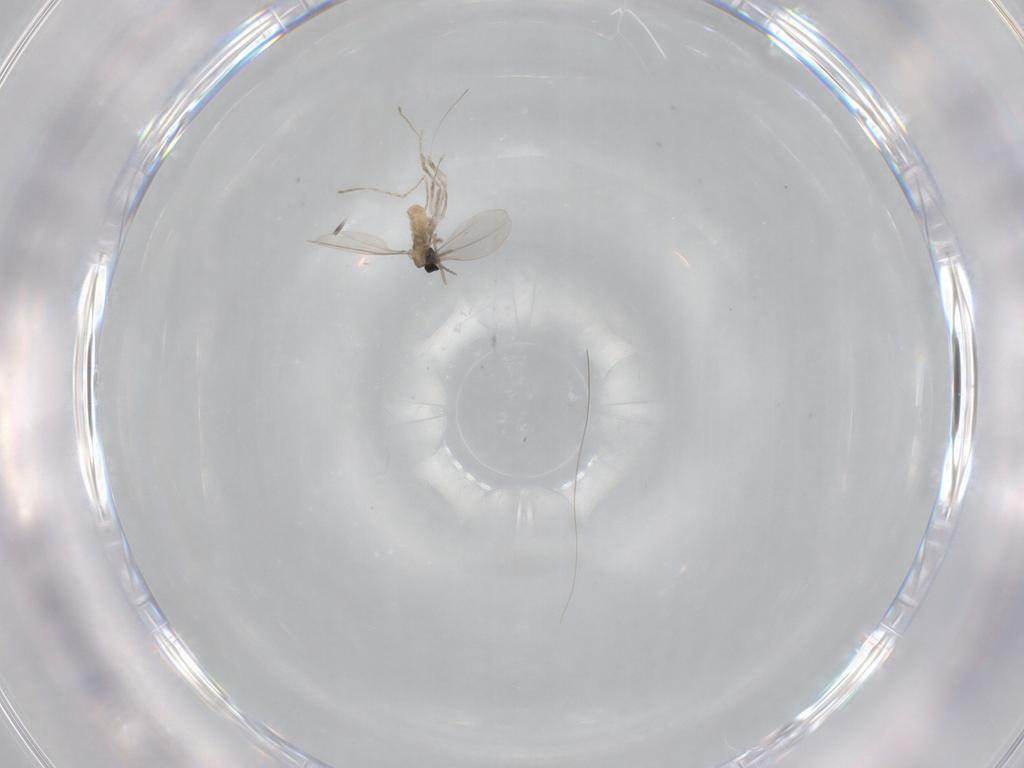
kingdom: Animalia
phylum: Arthropoda
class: Insecta
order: Diptera
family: Cecidomyiidae
